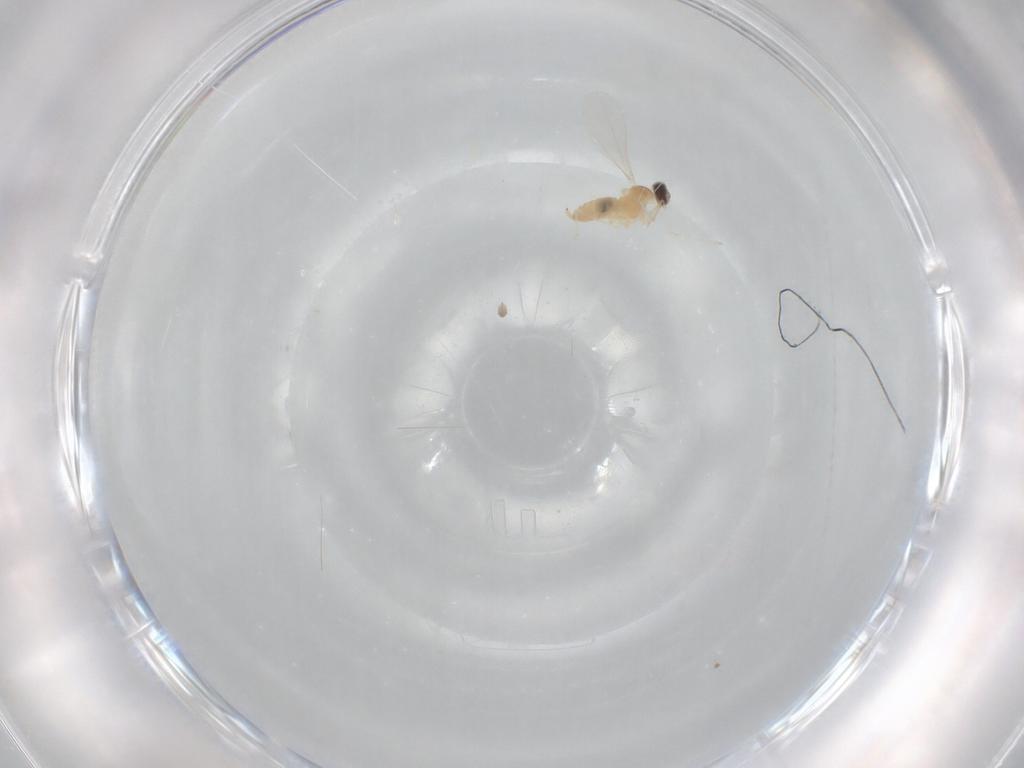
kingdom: Animalia
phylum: Arthropoda
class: Insecta
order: Diptera
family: Cecidomyiidae
